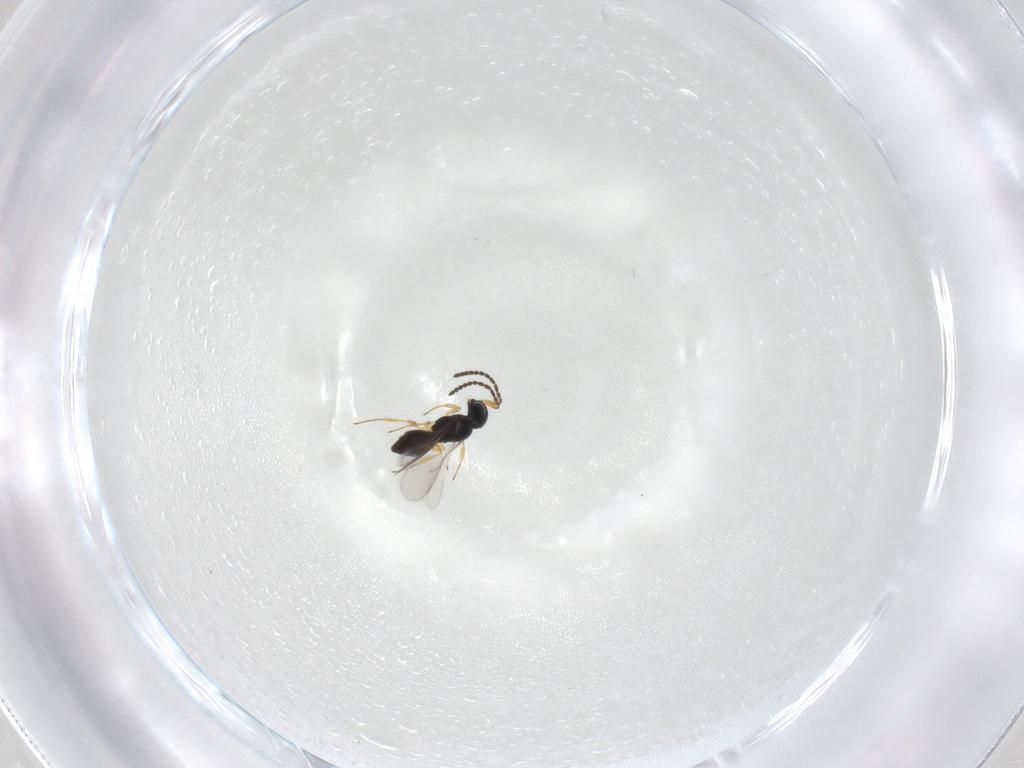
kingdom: Animalia
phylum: Arthropoda
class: Insecta
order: Hymenoptera
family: Scelionidae
